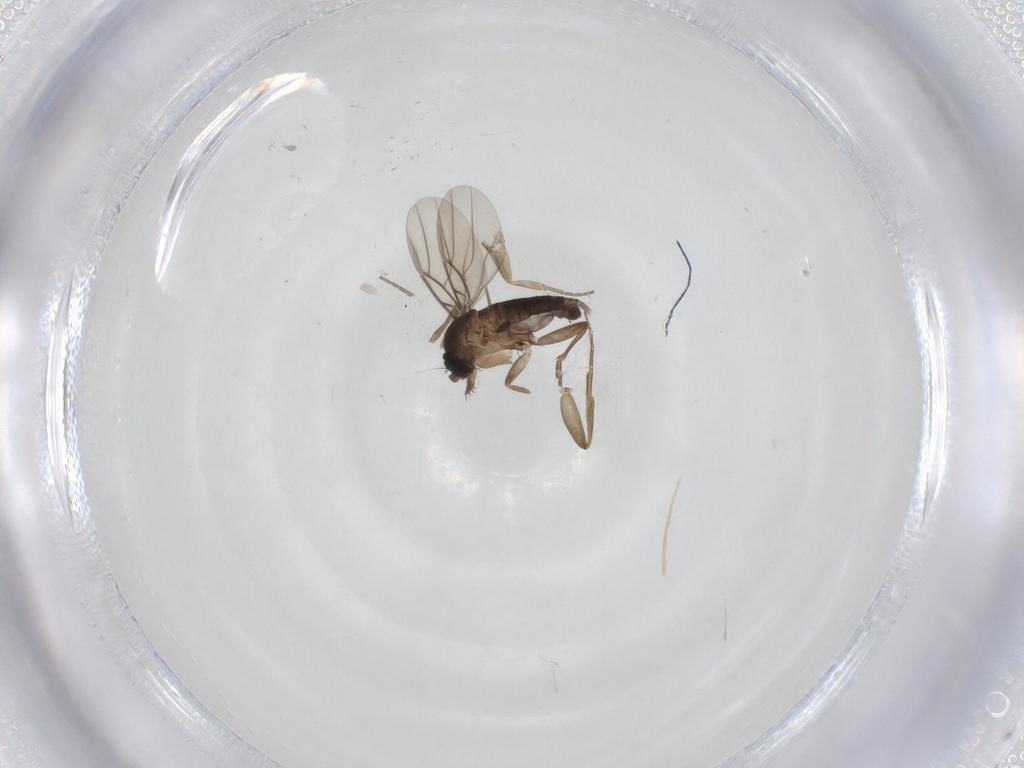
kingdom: Animalia
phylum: Arthropoda
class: Insecta
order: Diptera
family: Phoridae
